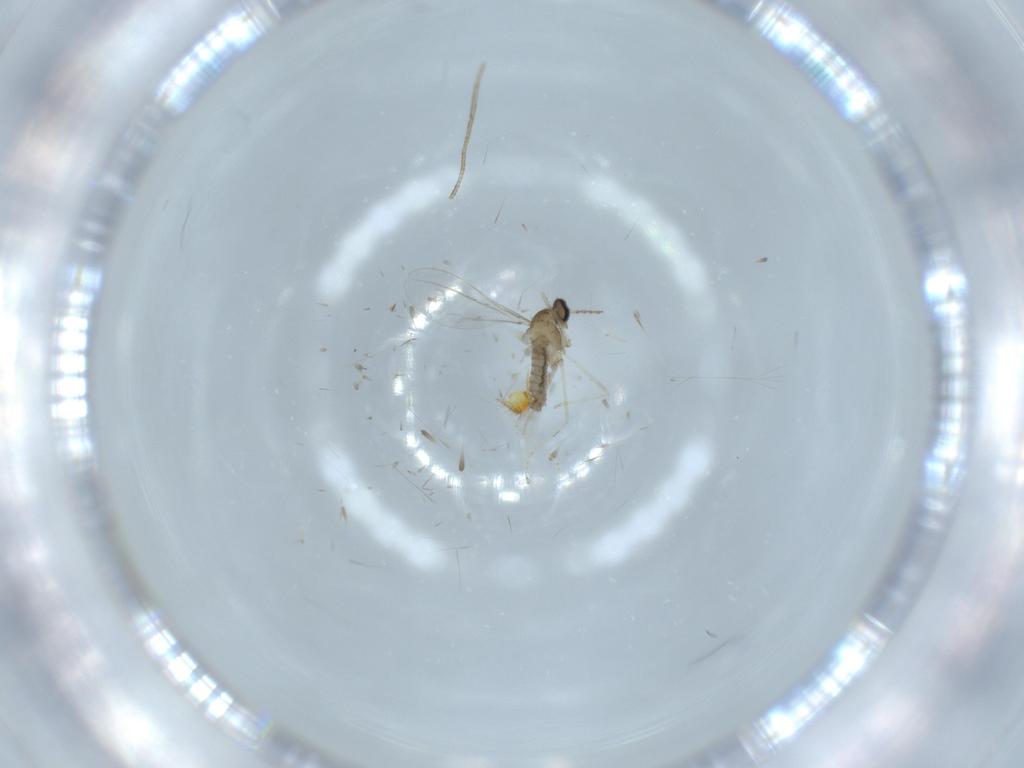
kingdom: Animalia
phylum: Arthropoda
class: Insecta
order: Diptera
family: Cecidomyiidae
